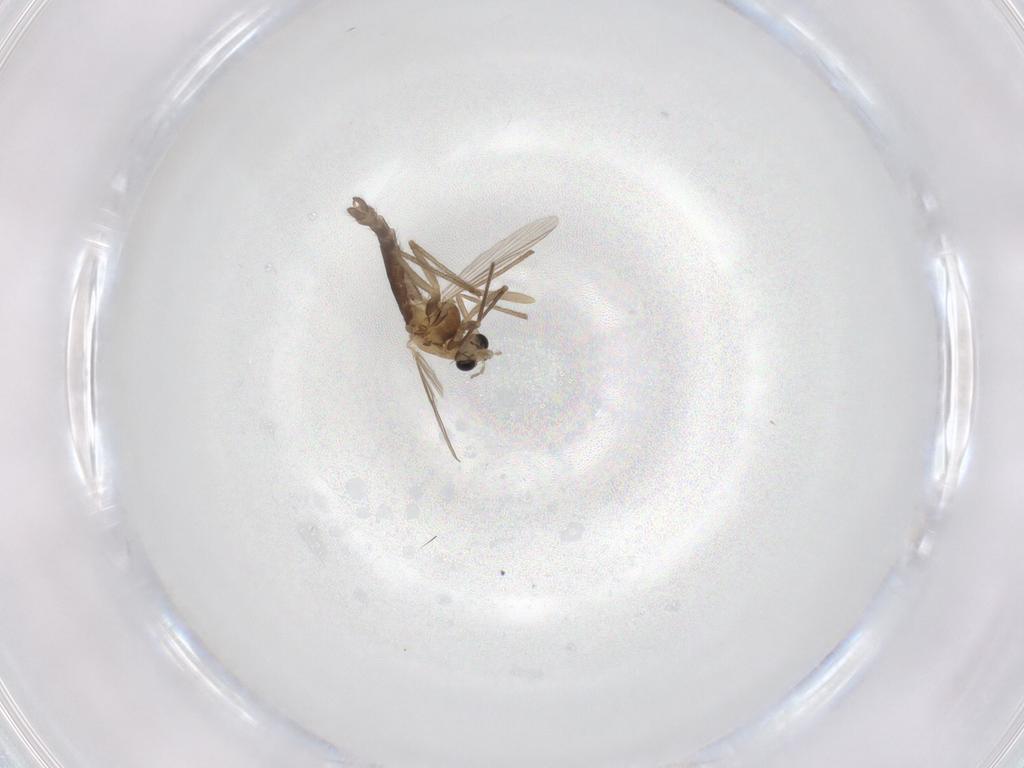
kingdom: Animalia
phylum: Arthropoda
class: Insecta
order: Diptera
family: Chironomidae
